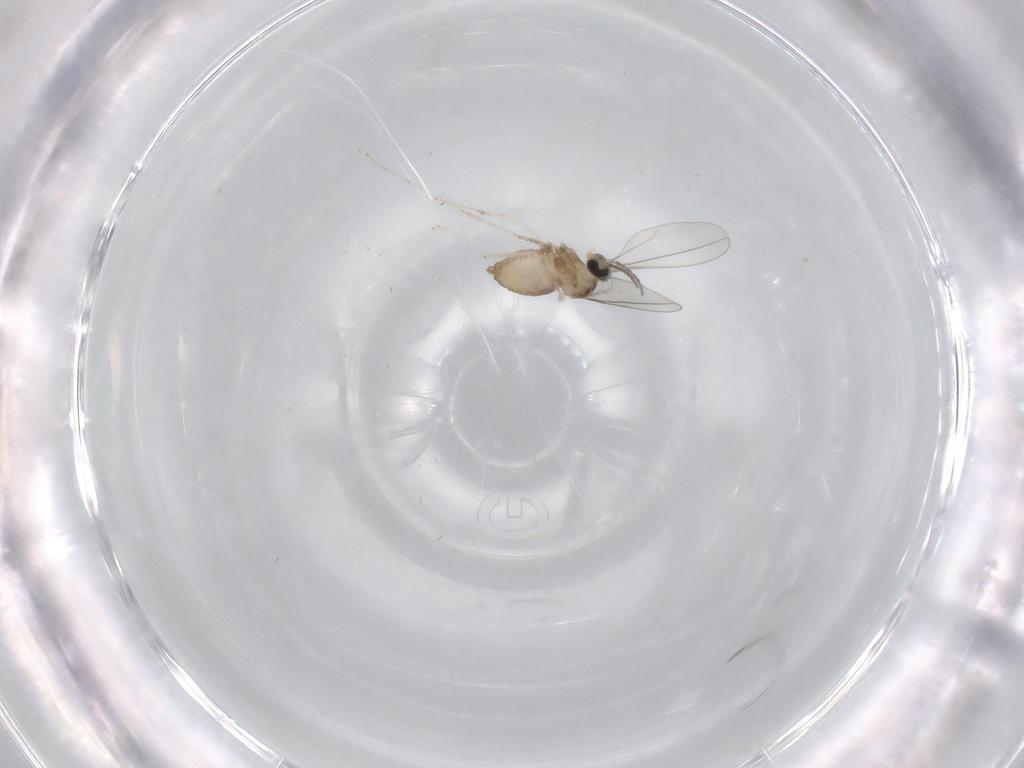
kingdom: Animalia
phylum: Arthropoda
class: Insecta
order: Diptera
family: Cecidomyiidae
